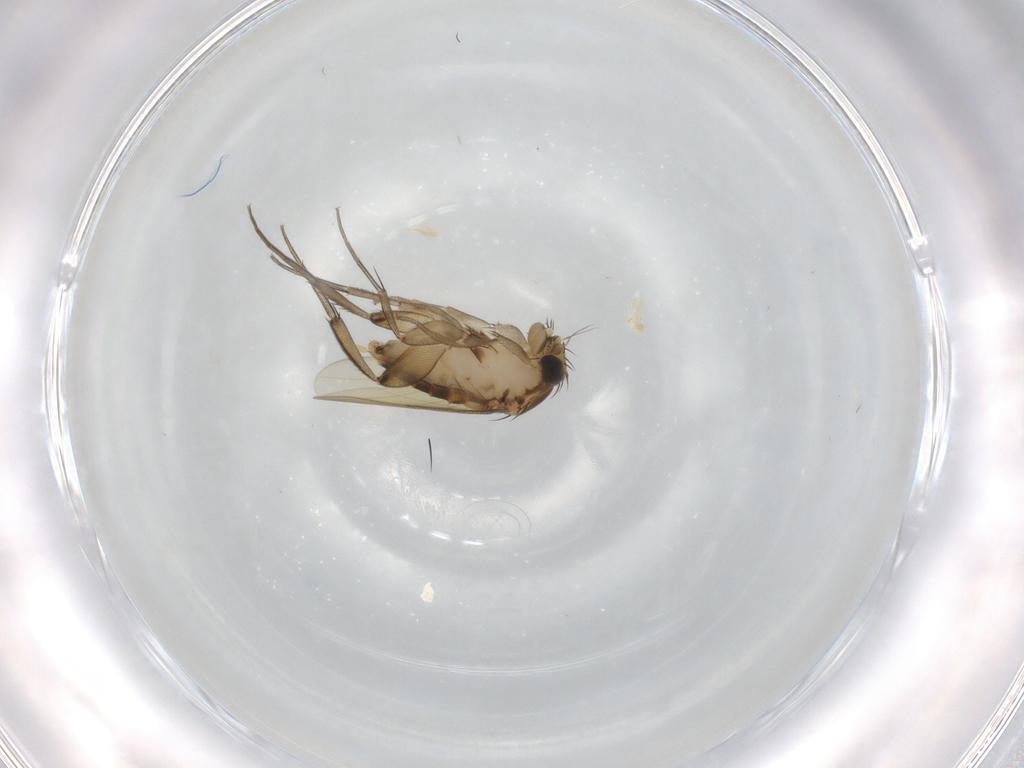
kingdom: Animalia
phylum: Arthropoda
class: Insecta
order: Diptera
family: Phoridae
